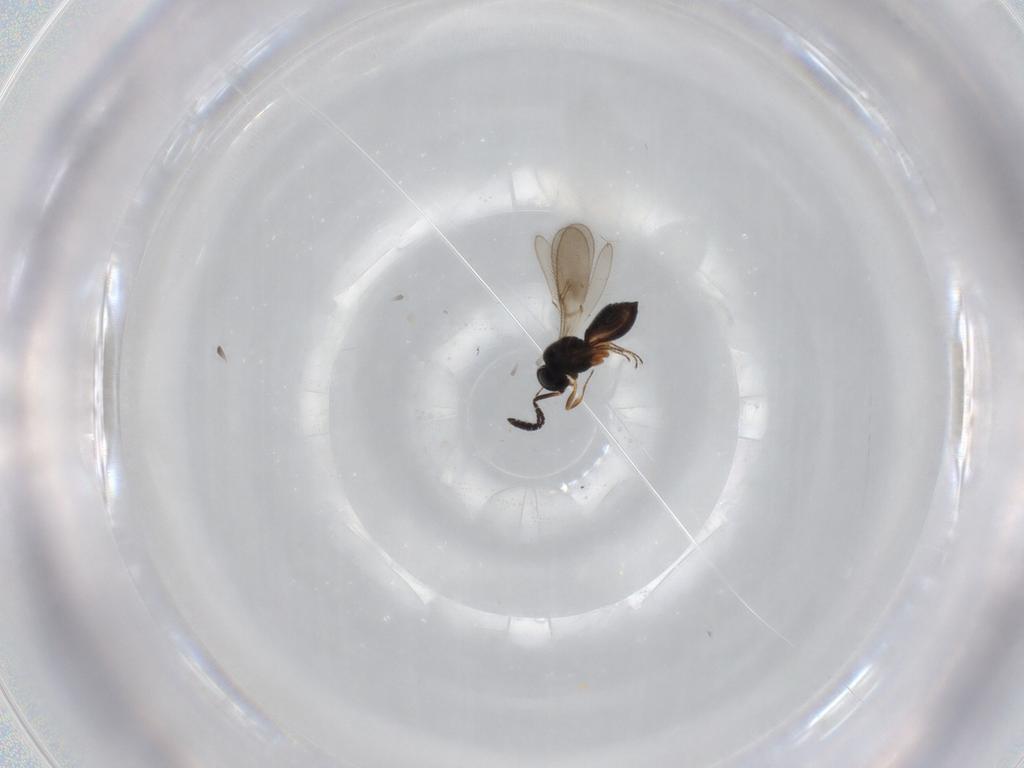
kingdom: Animalia
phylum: Arthropoda
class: Insecta
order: Hymenoptera
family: Scelionidae
